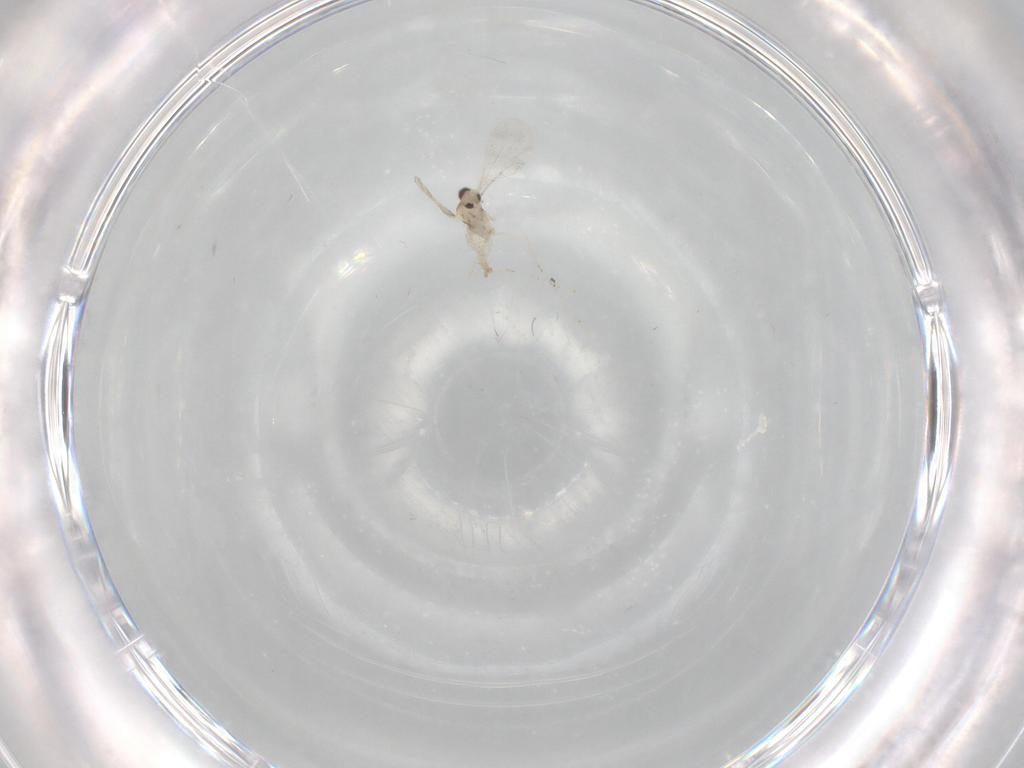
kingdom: Animalia
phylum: Arthropoda
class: Insecta
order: Diptera
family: Cecidomyiidae
